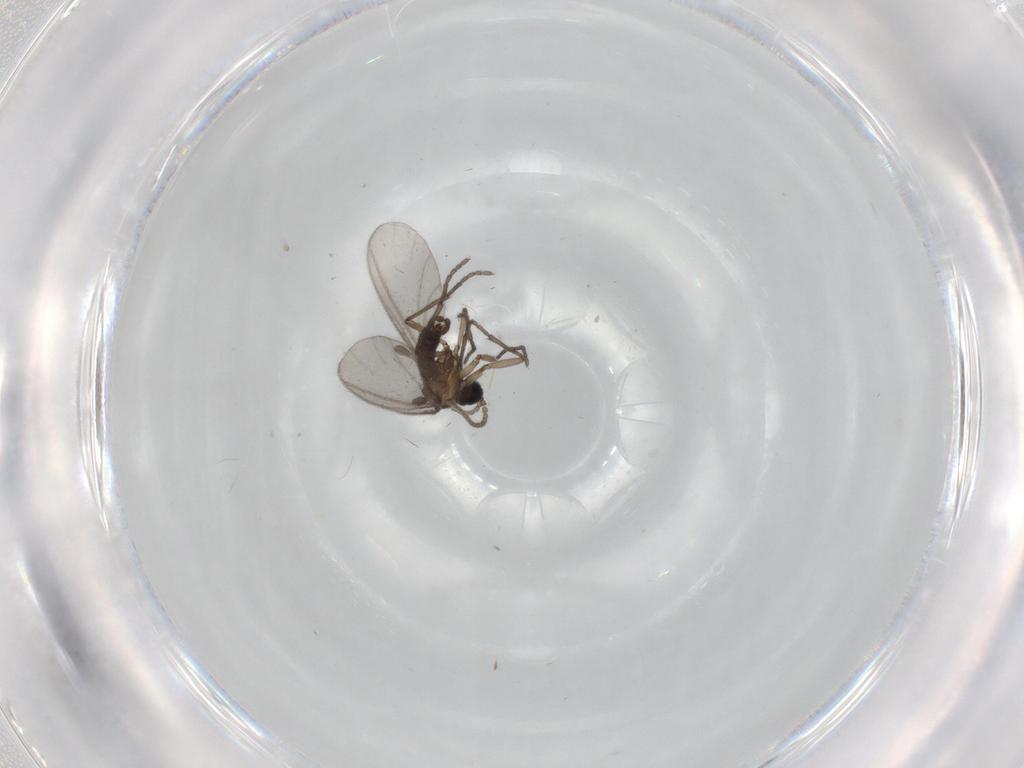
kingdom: Animalia
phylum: Arthropoda
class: Insecta
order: Diptera
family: Sciaridae
